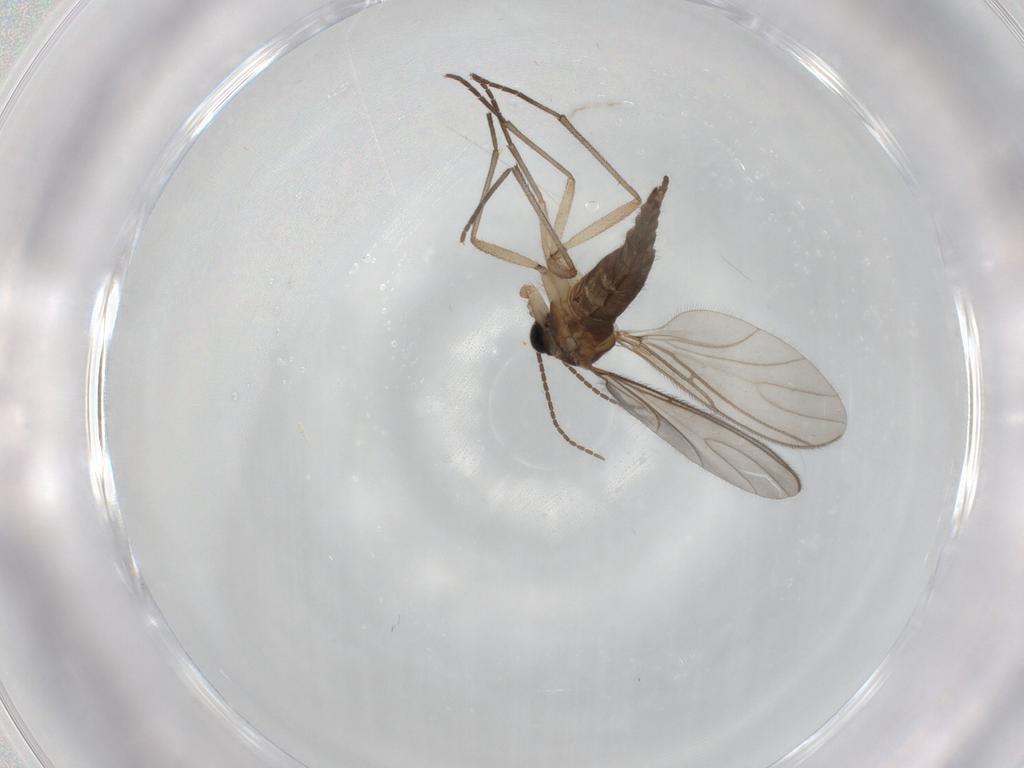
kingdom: Animalia
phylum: Arthropoda
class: Insecta
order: Diptera
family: Sciaridae
